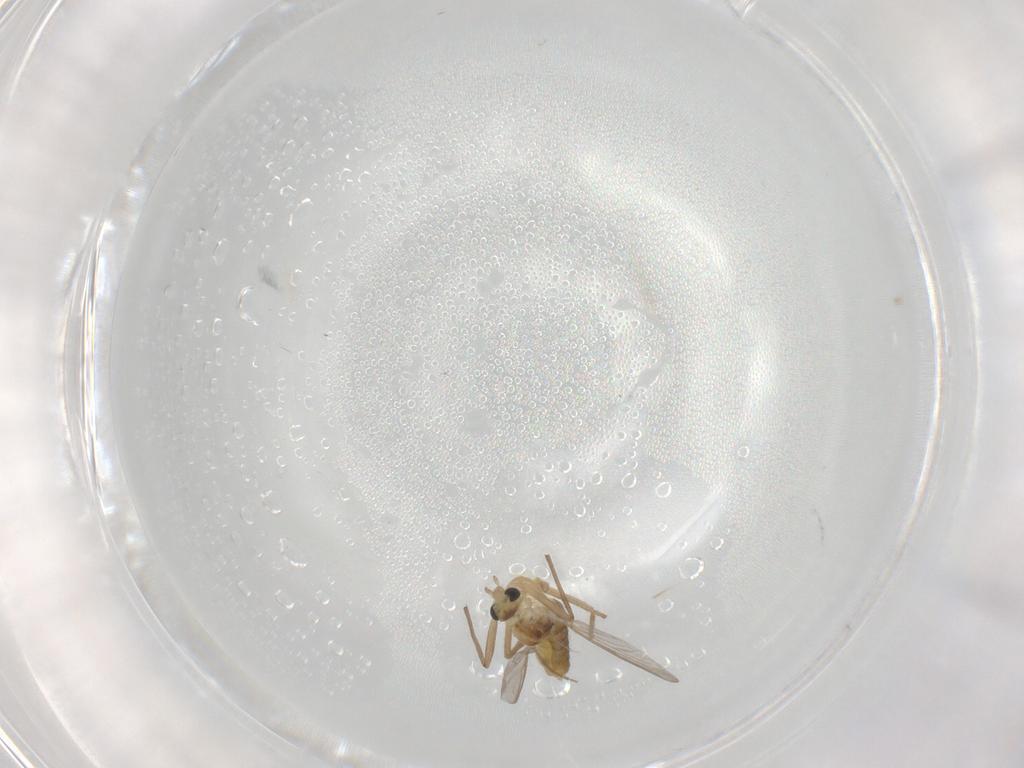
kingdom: Animalia
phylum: Arthropoda
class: Insecta
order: Diptera
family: Chironomidae
